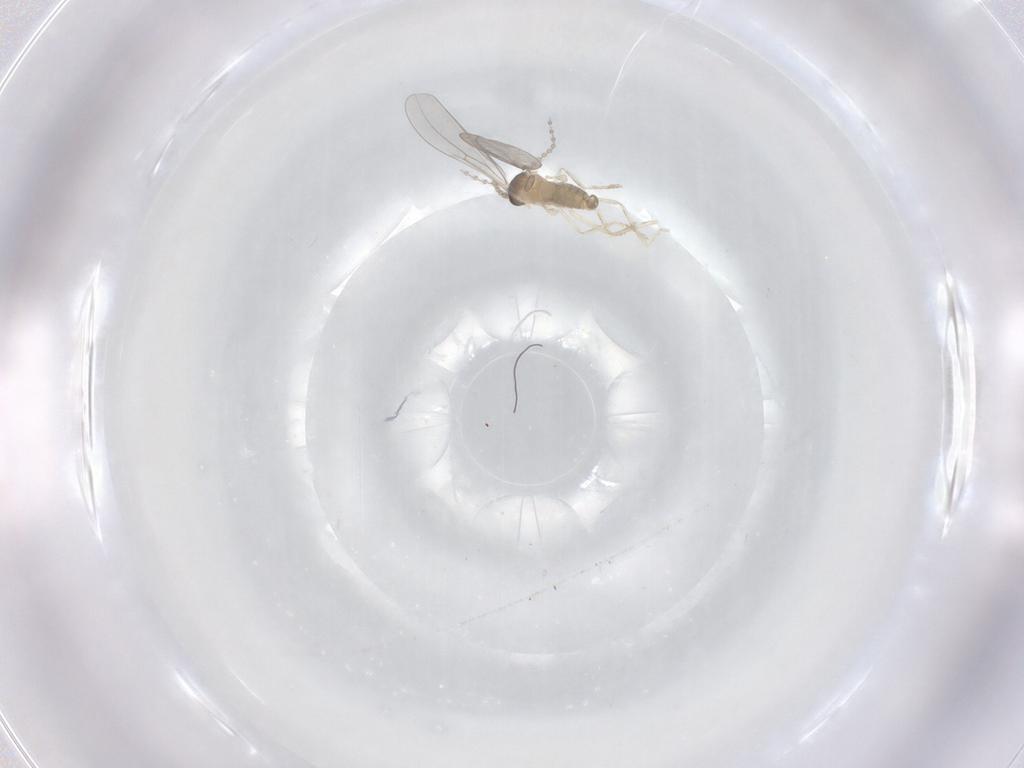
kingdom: Animalia
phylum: Arthropoda
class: Insecta
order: Diptera
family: Cecidomyiidae
